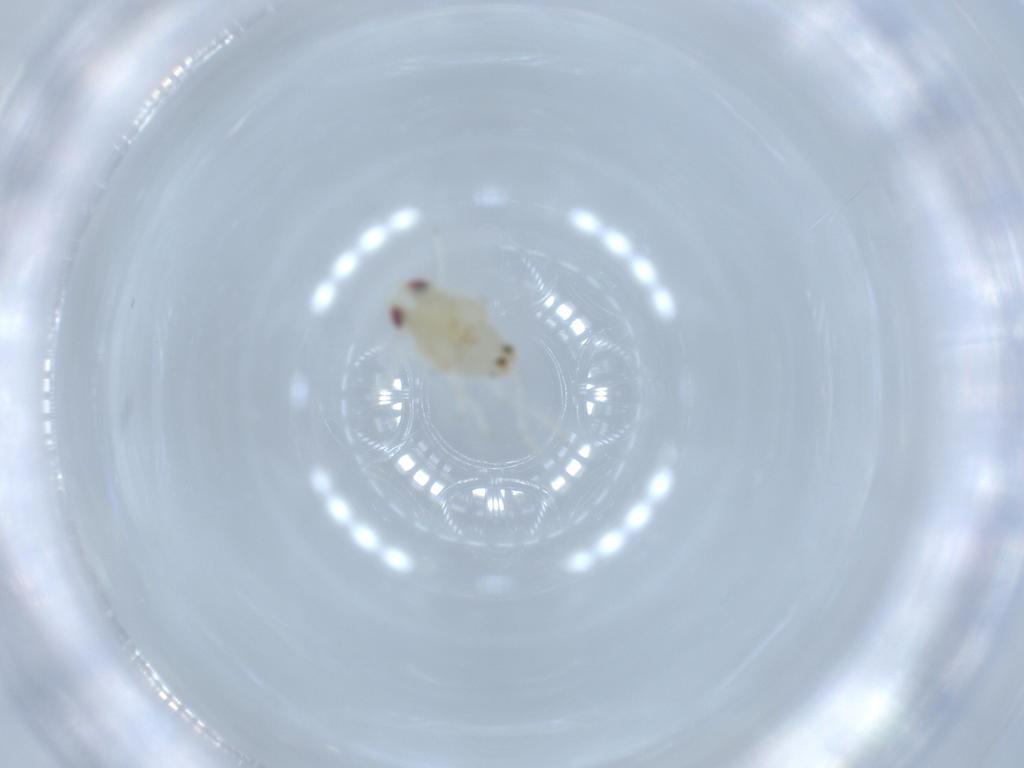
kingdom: Animalia
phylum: Arthropoda
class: Insecta
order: Hemiptera
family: Nogodinidae
